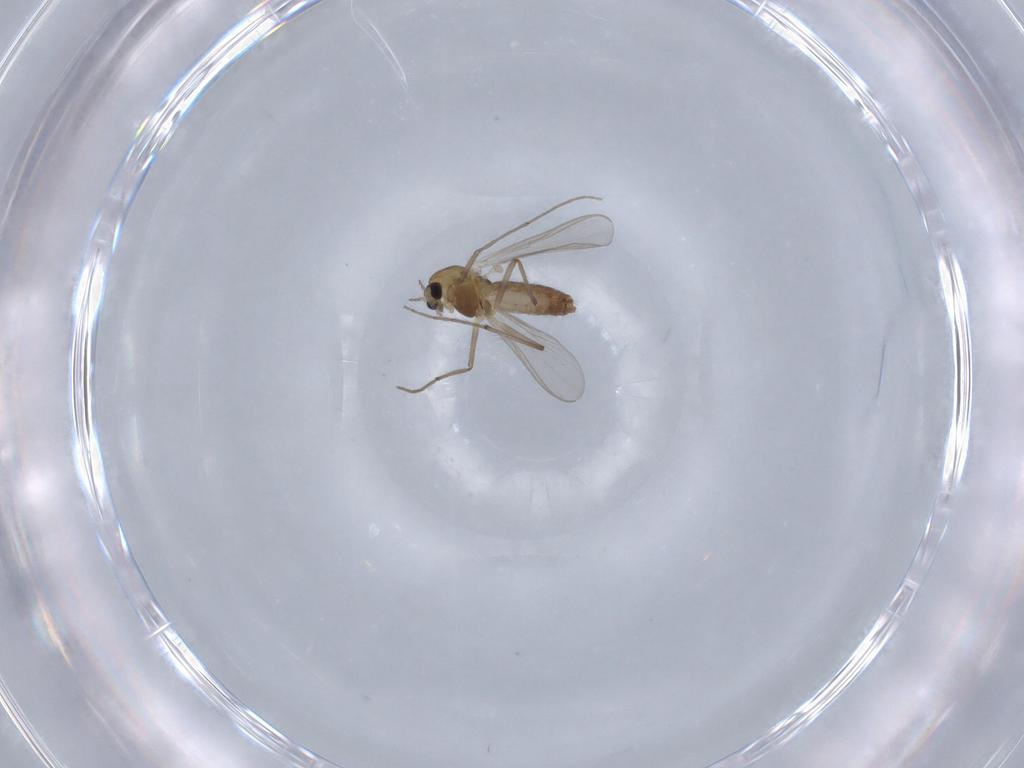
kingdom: Animalia
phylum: Arthropoda
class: Insecta
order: Diptera
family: Chironomidae
